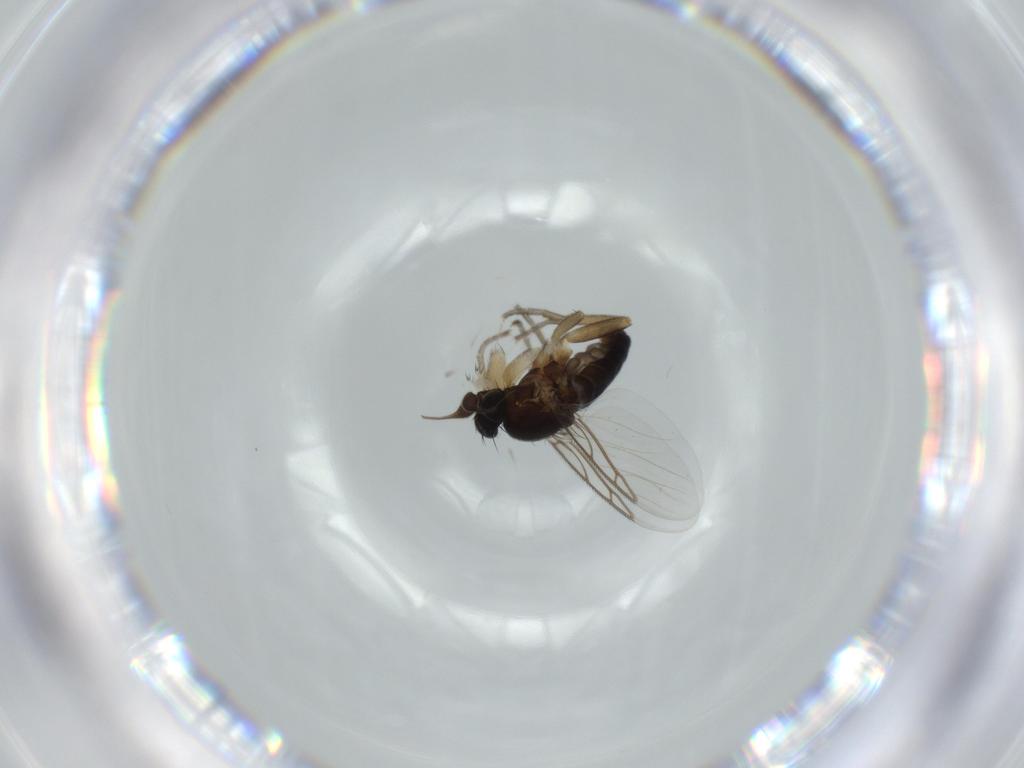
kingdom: Animalia
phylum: Arthropoda
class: Insecta
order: Diptera
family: Phoridae
